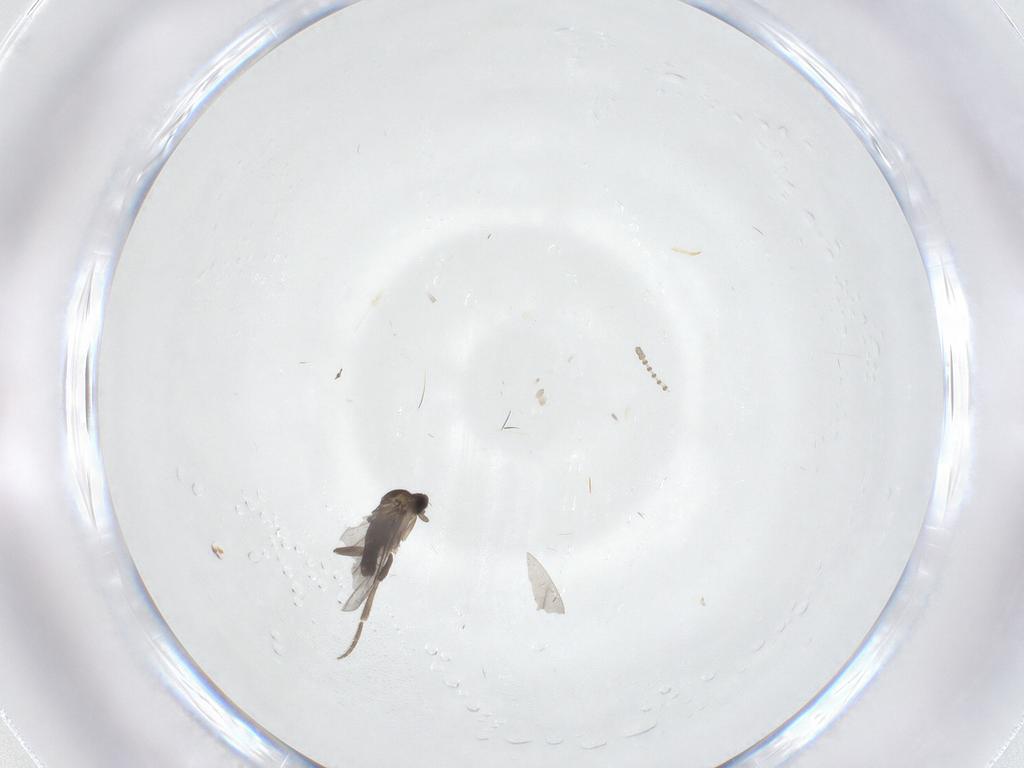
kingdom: Animalia
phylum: Arthropoda
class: Insecta
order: Diptera
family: Phoridae
